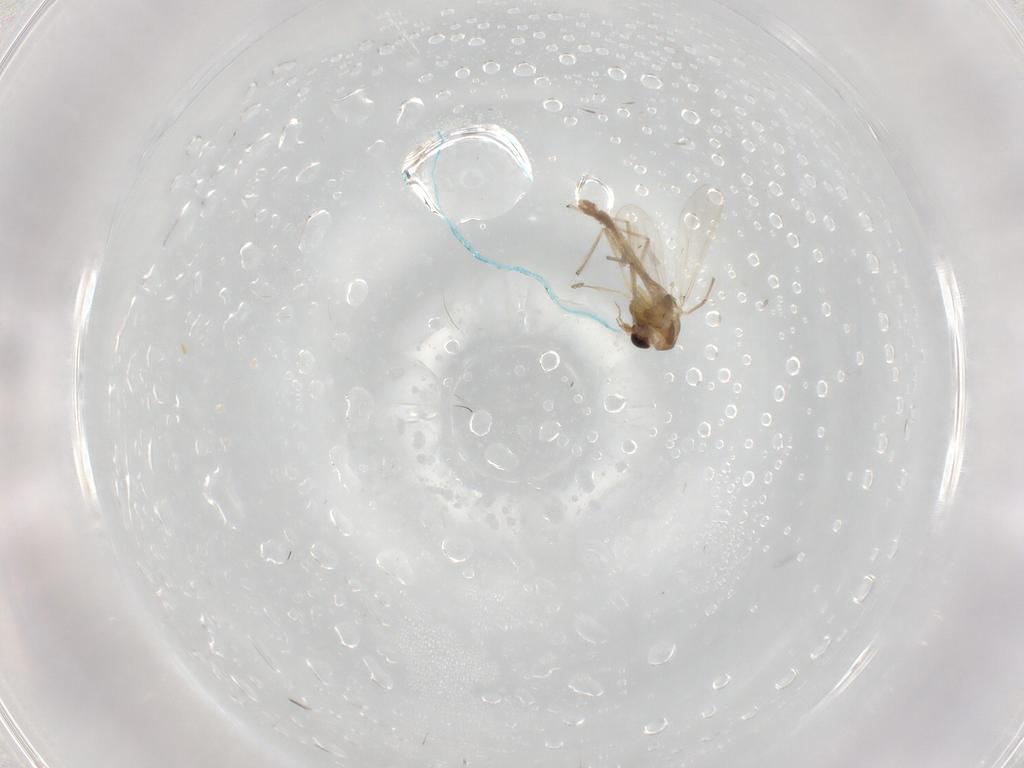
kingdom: Animalia
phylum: Arthropoda
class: Insecta
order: Diptera
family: Chironomidae
